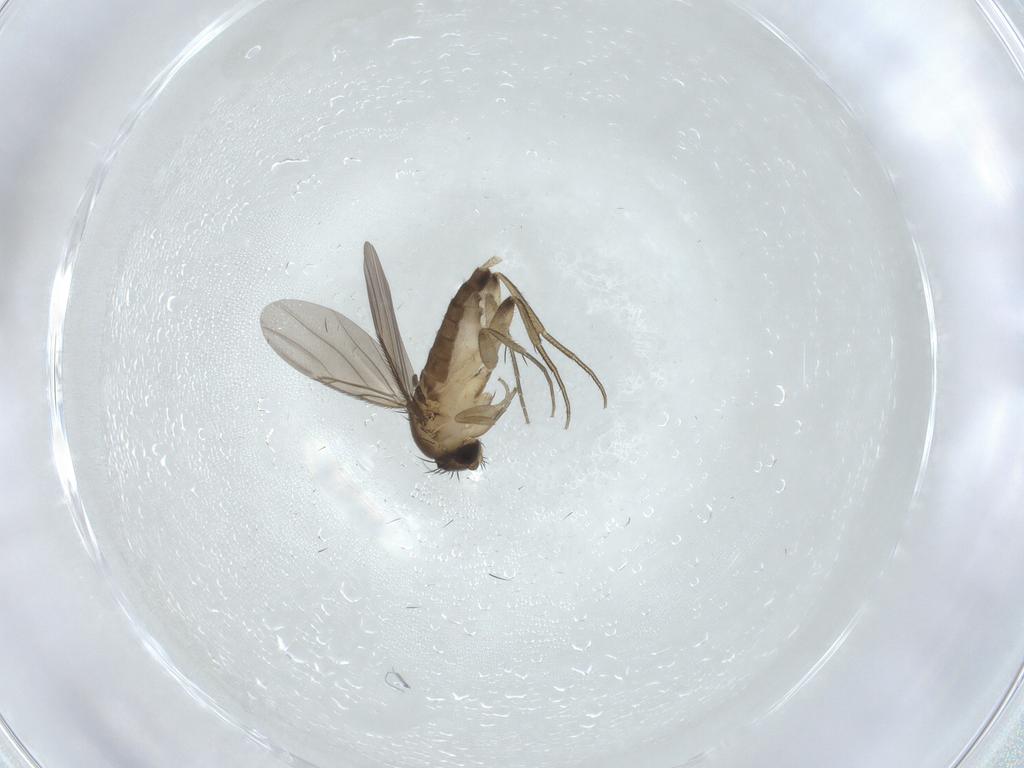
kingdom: Animalia
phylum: Arthropoda
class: Insecta
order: Diptera
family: Phoridae
